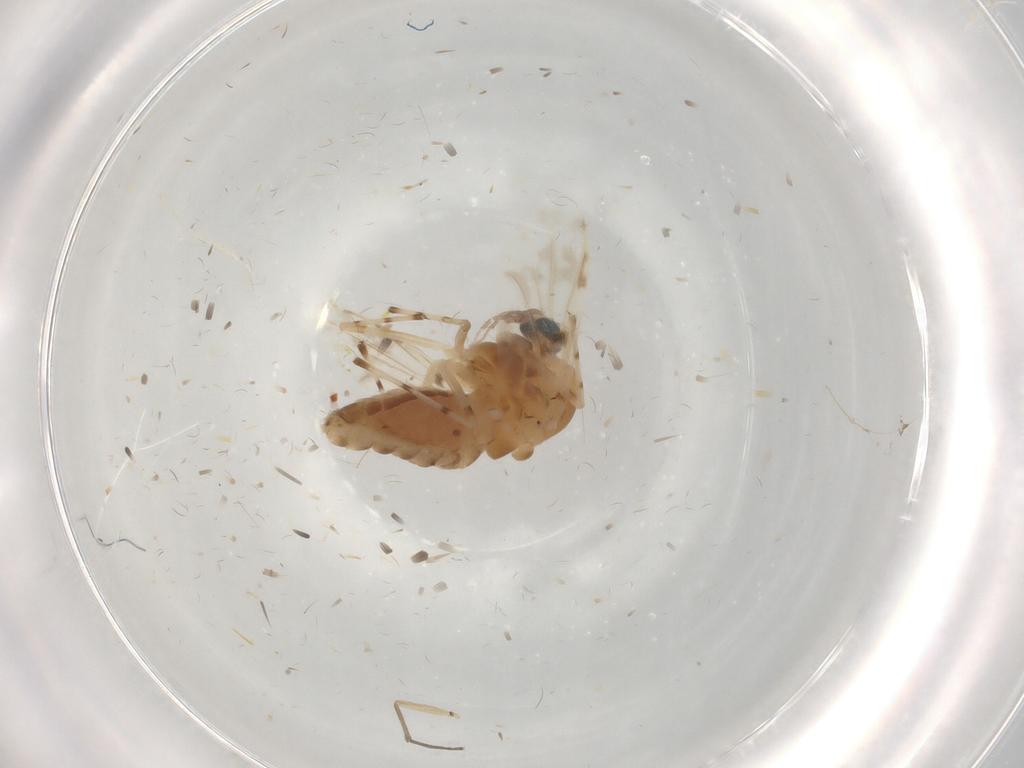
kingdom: Animalia
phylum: Arthropoda
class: Insecta
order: Diptera
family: Chironomidae
